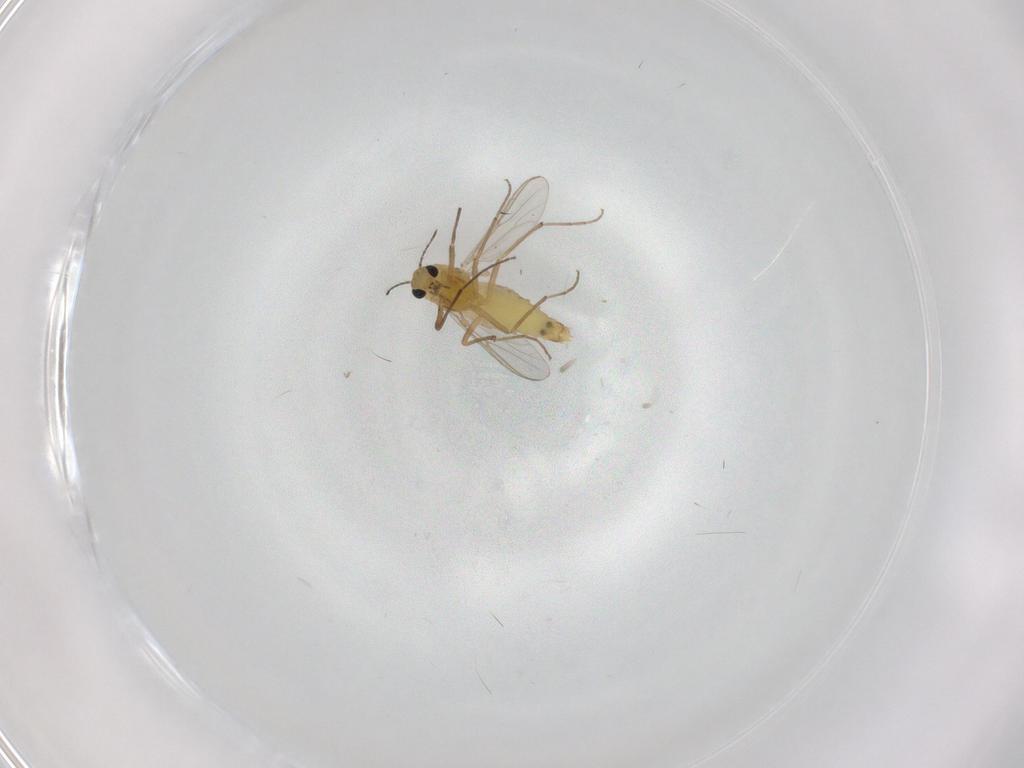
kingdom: Animalia
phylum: Arthropoda
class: Insecta
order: Diptera
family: Chironomidae
